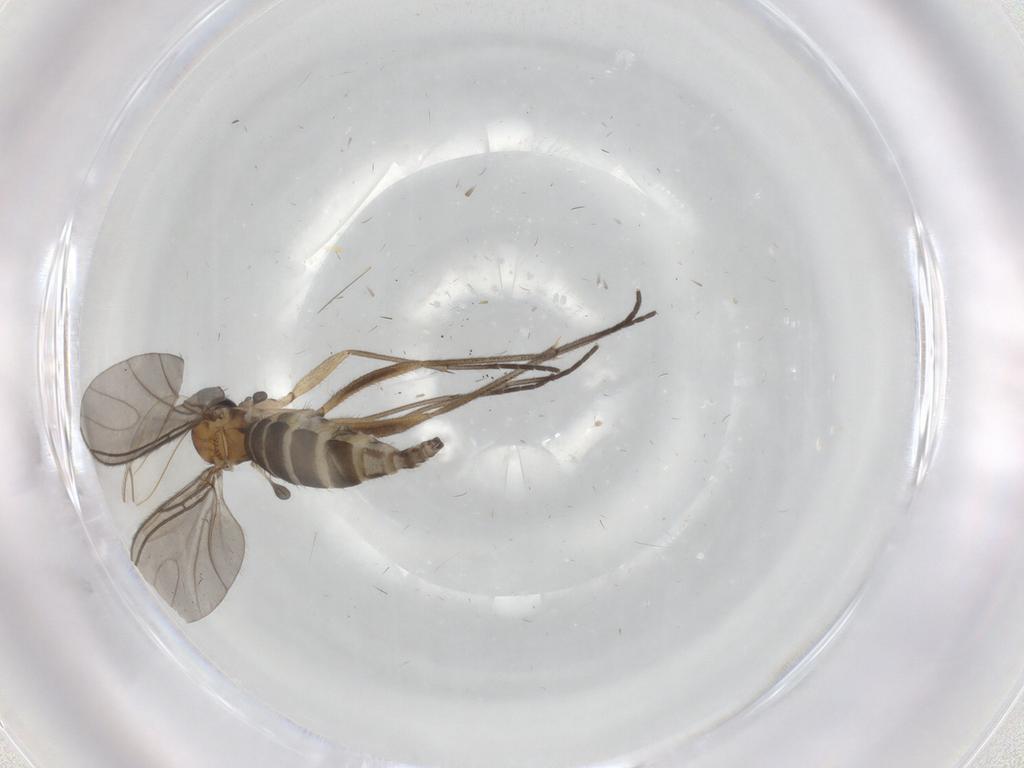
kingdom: Animalia
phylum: Arthropoda
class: Insecta
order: Diptera
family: Sciaridae
